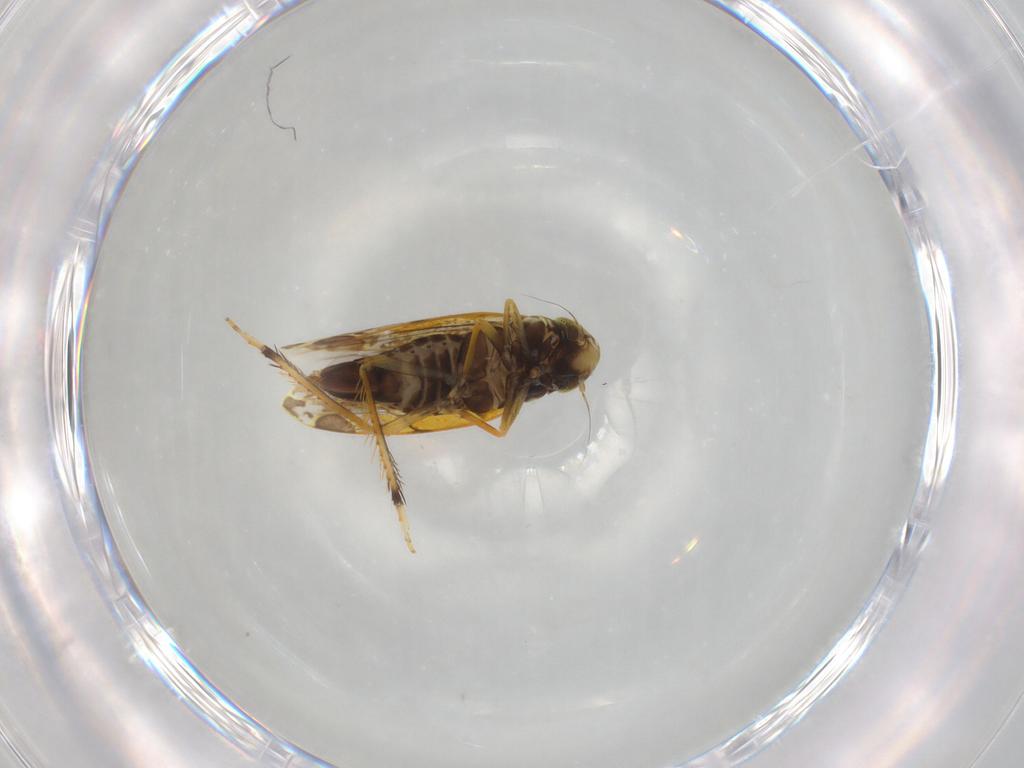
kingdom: Animalia
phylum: Arthropoda
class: Insecta
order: Hemiptera
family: Cicadellidae
